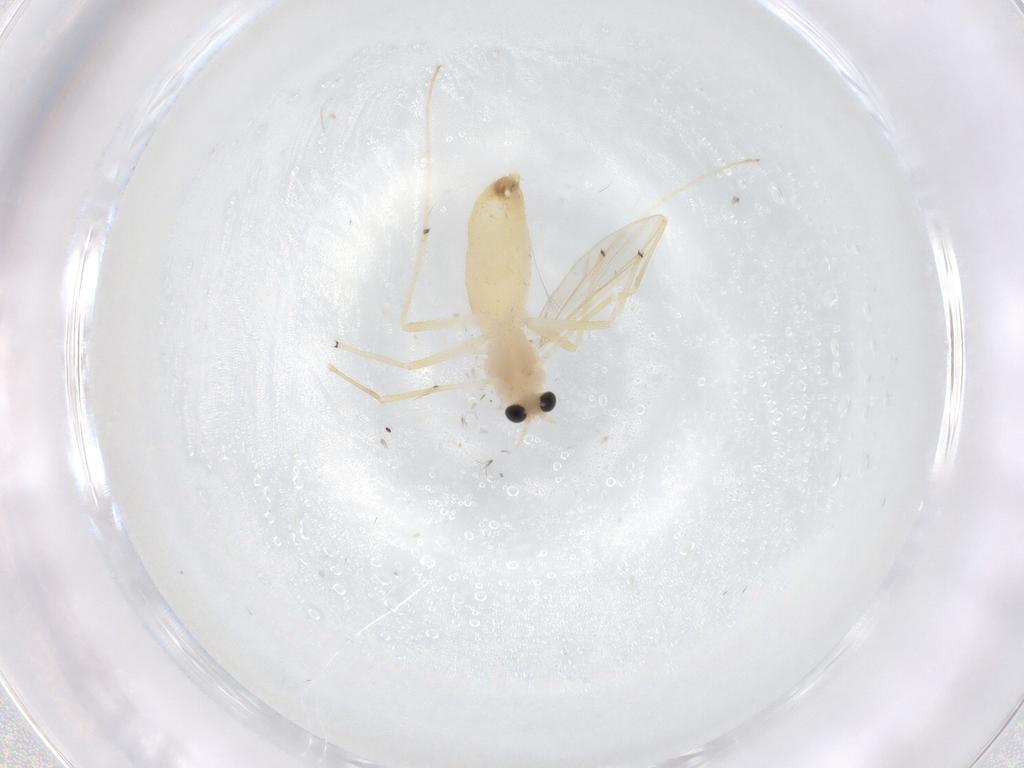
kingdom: Animalia
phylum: Arthropoda
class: Insecta
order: Diptera
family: Chironomidae
